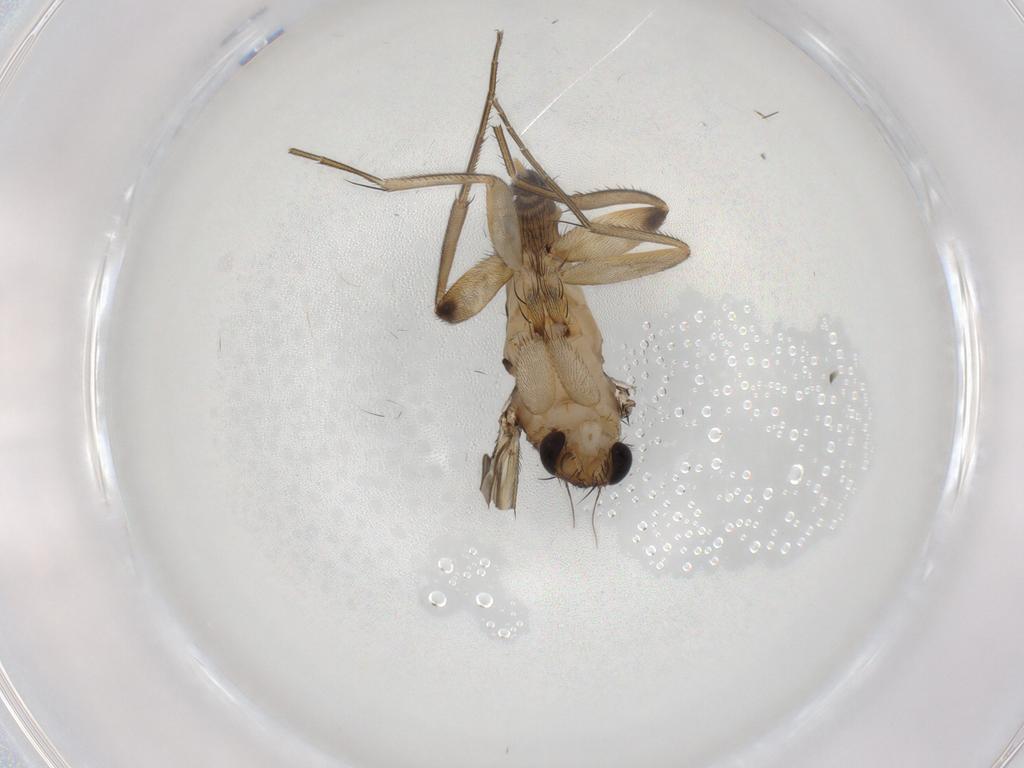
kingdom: Animalia
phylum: Arthropoda
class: Insecta
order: Diptera
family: Phoridae
